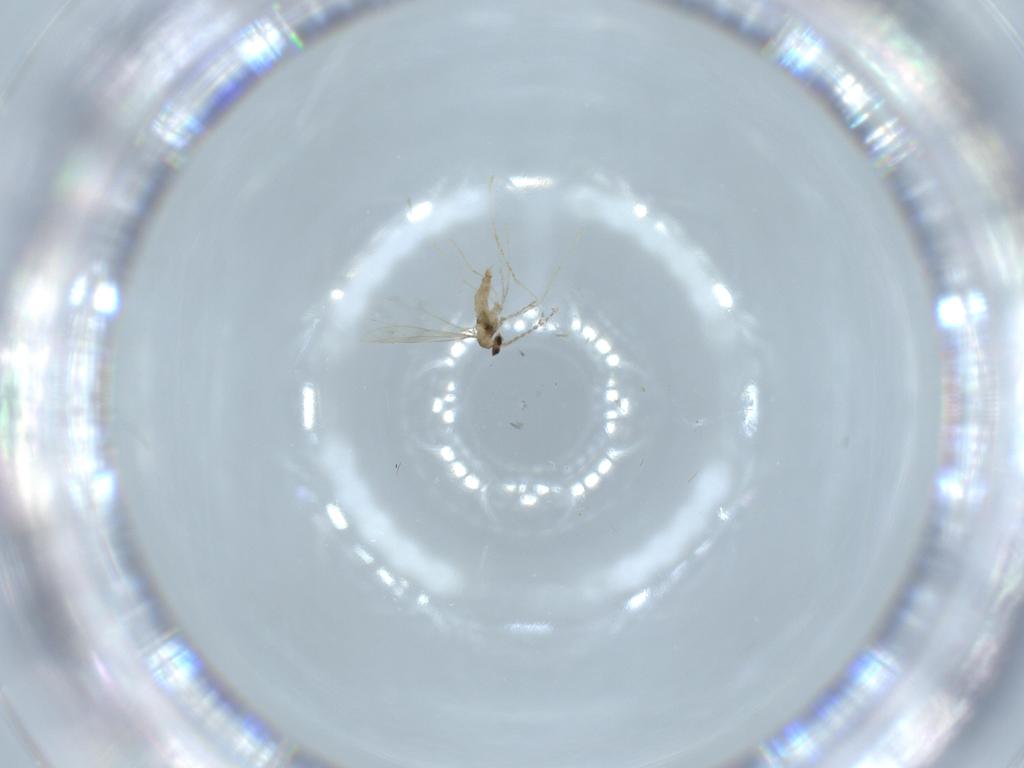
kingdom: Animalia
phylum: Arthropoda
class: Insecta
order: Diptera
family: Cecidomyiidae
